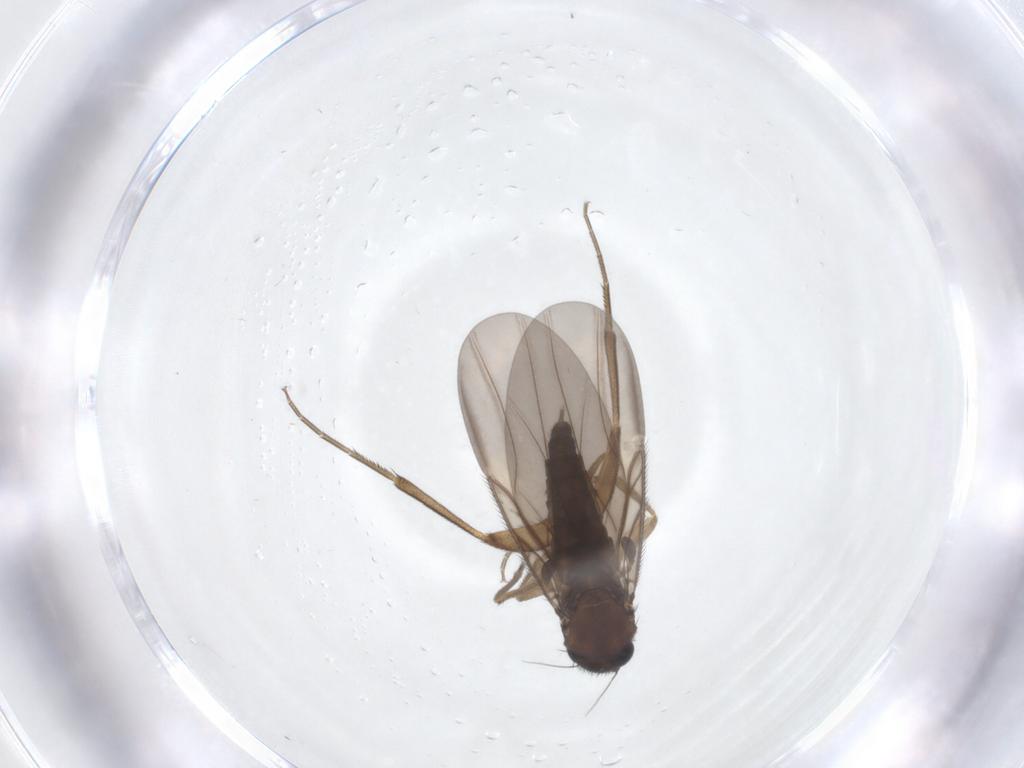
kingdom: Animalia
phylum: Arthropoda
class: Insecta
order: Diptera
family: Phoridae
